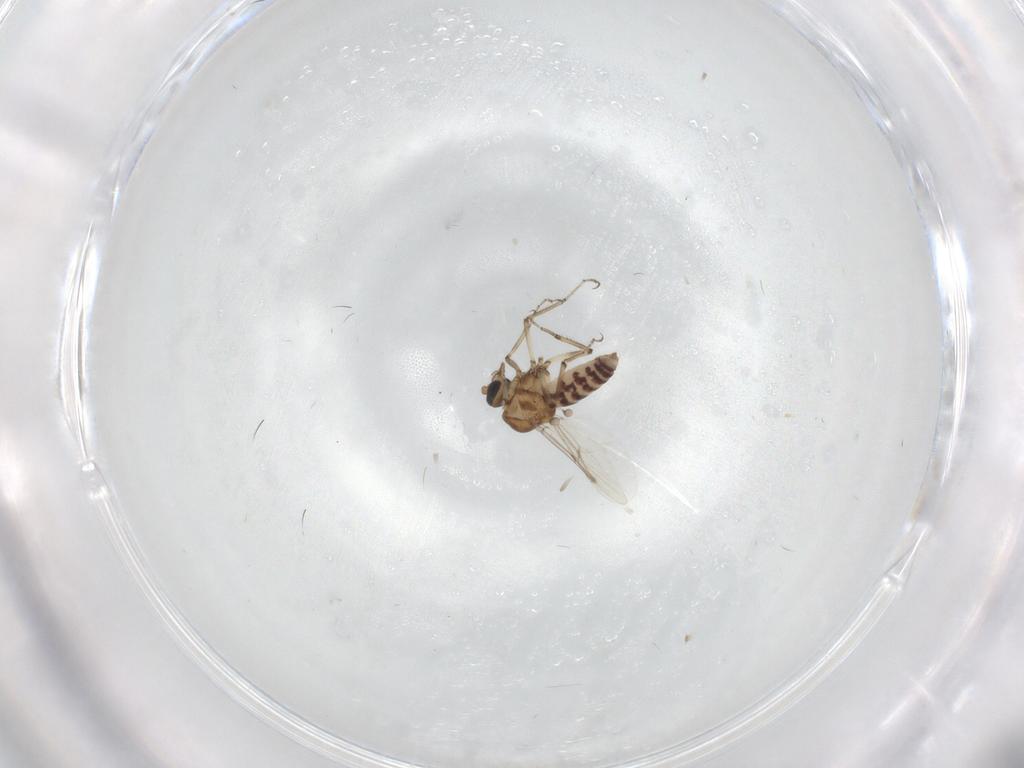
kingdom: Animalia
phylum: Arthropoda
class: Insecta
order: Diptera
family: Ceratopogonidae
